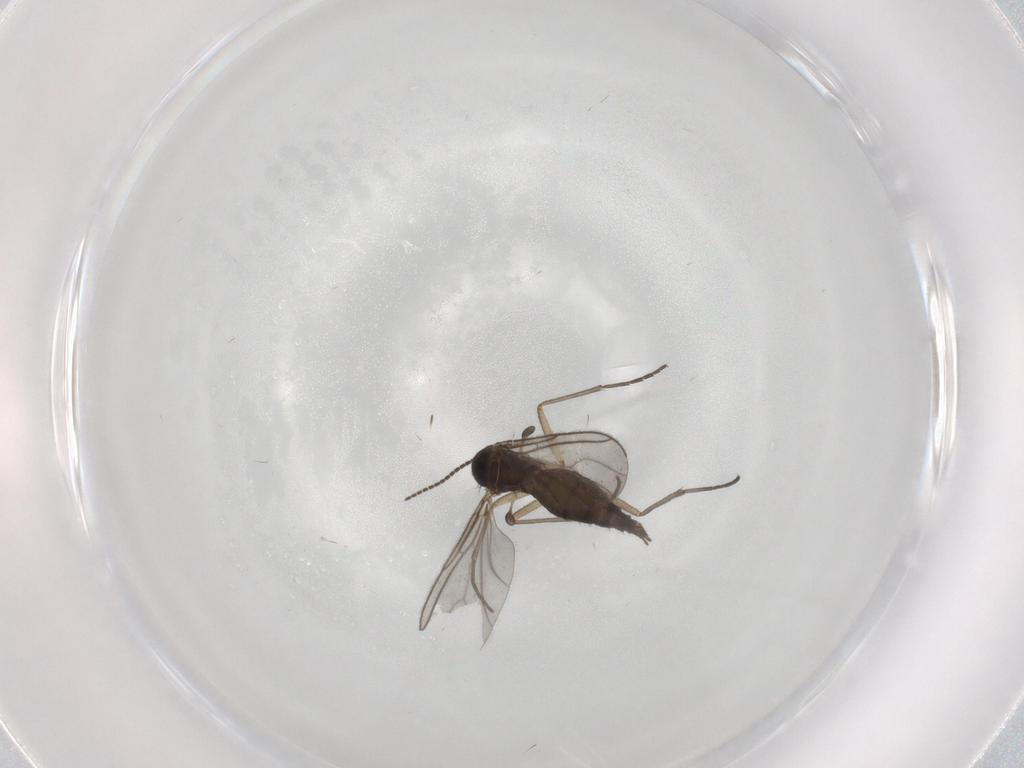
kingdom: Animalia
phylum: Arthropoda
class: Insecta
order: Diptera
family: Sciaridae
